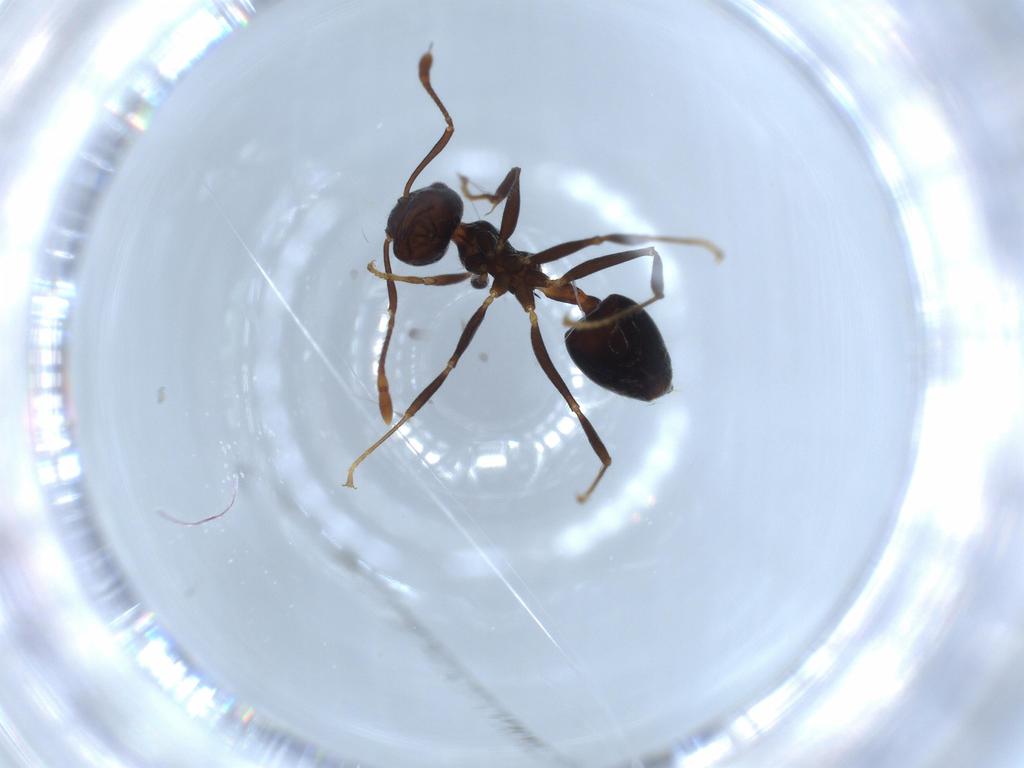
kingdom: Animalia
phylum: Arthropoda
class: Insecta
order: Hymenoptera
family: Formicidae
